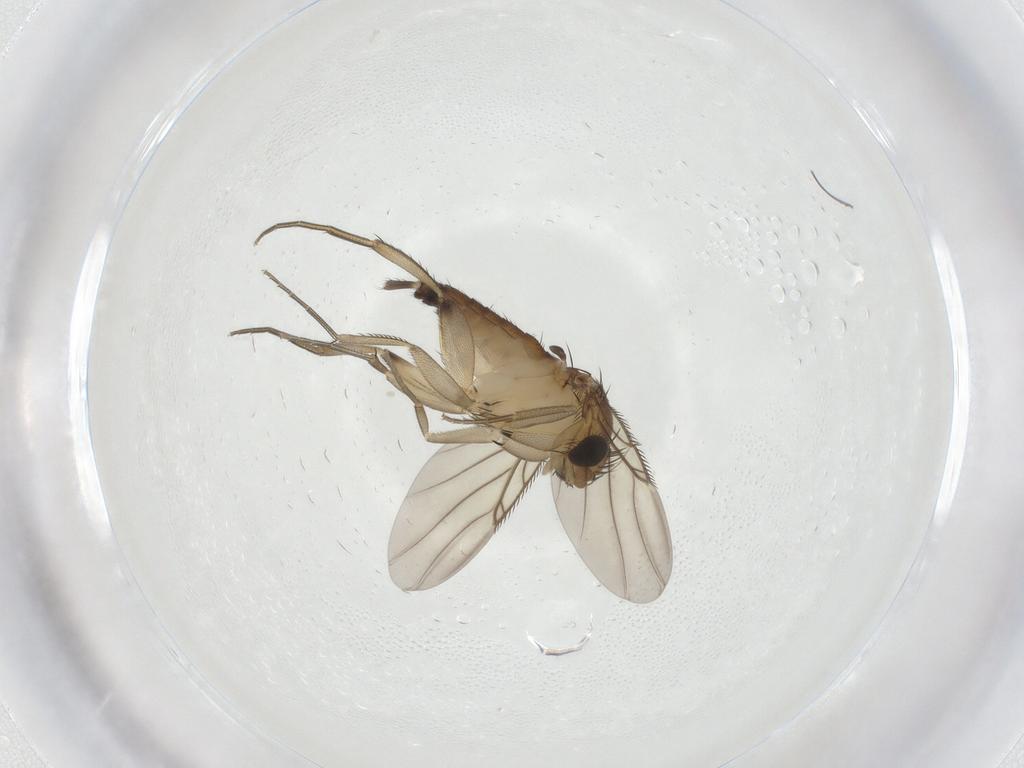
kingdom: Animalia
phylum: Arthropoda
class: Insecta
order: Diptera
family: Phoridae
